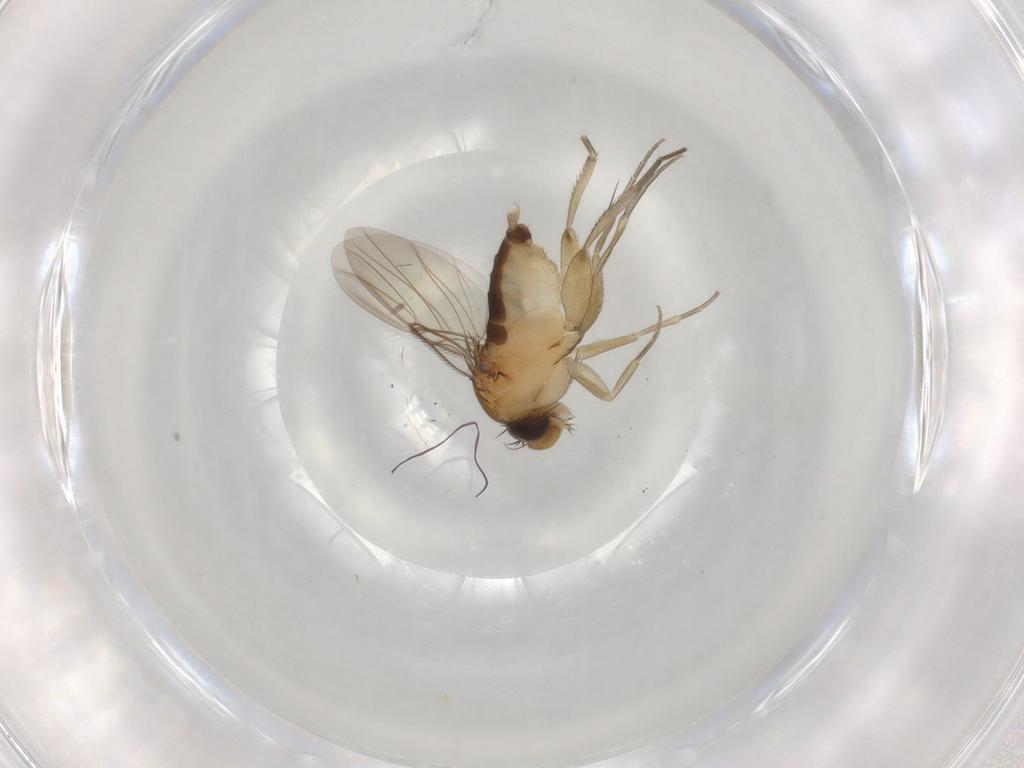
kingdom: Animalia
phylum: Arthropoda
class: Insecta
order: Diptera
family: Phoridae
